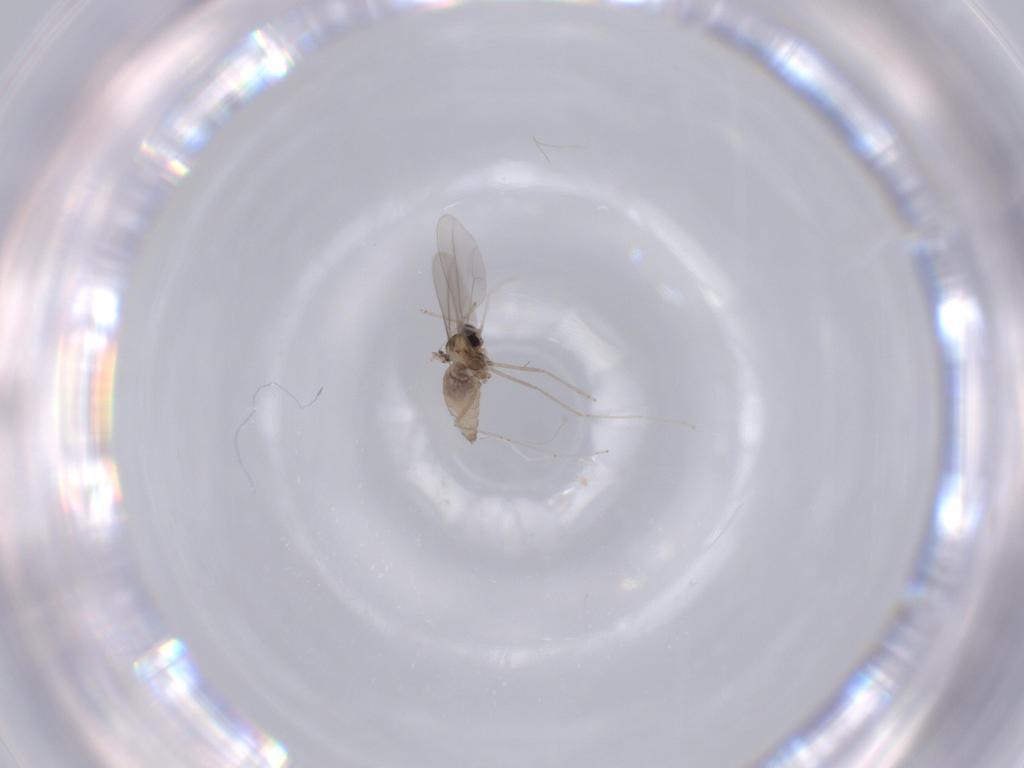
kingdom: Animalia
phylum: Arthropoda
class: Insecta
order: Diptera
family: Cecidomyiidae
